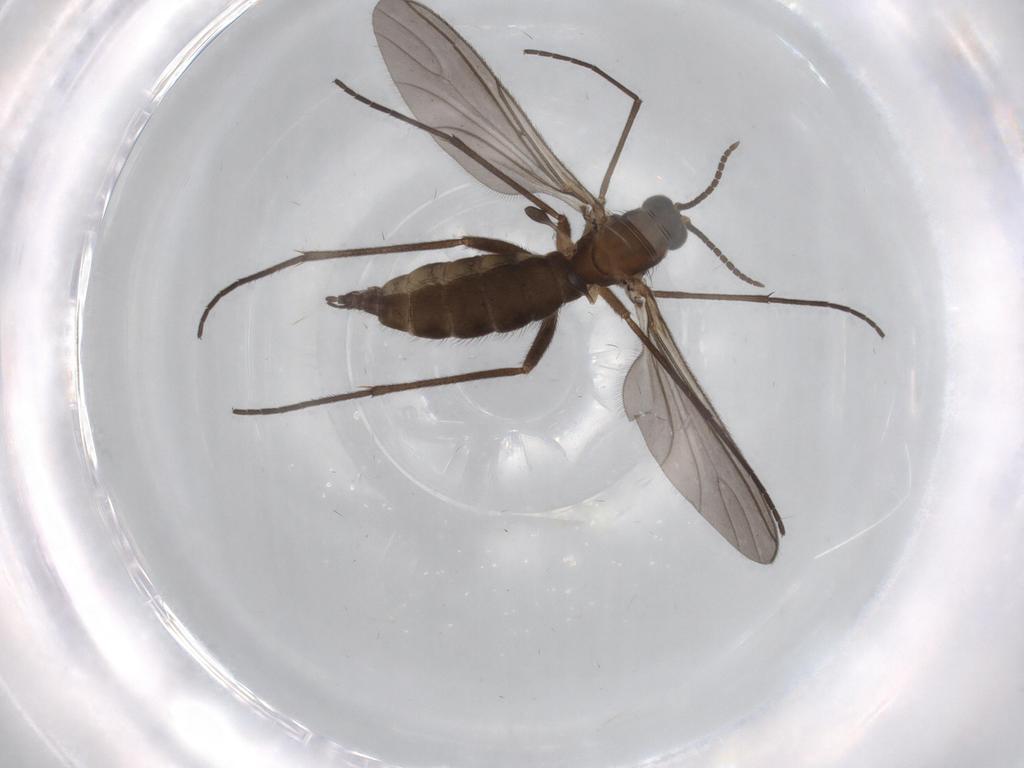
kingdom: Animalia
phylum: Arthropoda
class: Insecta
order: Diptera
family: Sciaridae
